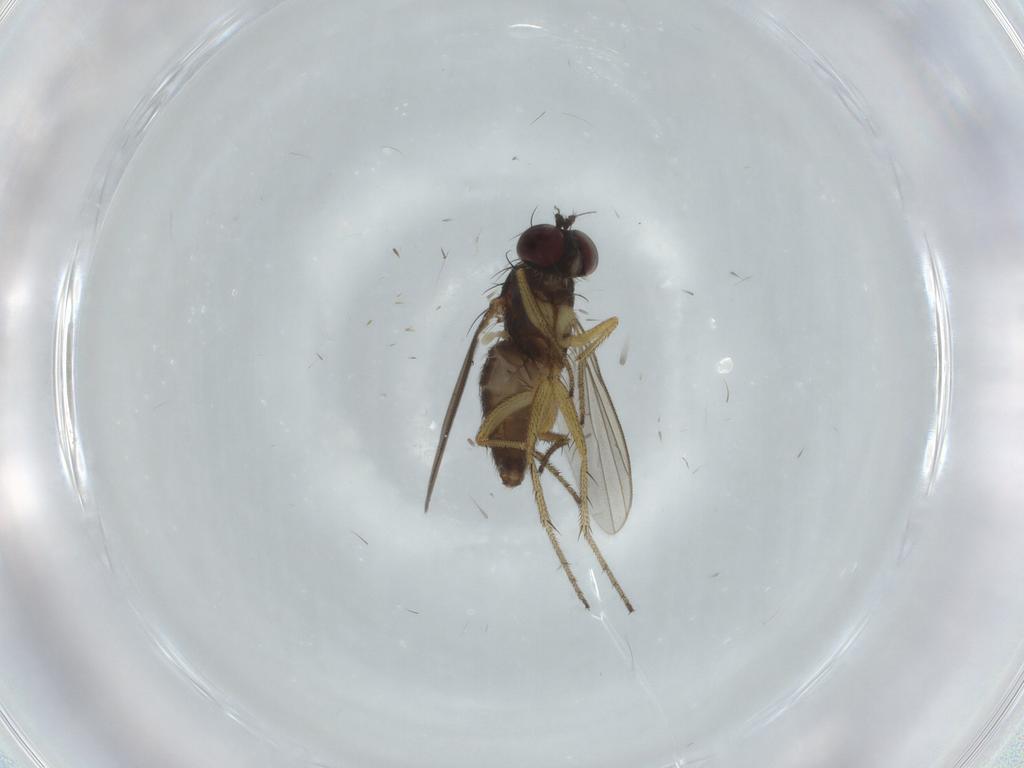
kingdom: Animalia
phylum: Arthropoda
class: Insecta
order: Diptera
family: Dolichopodidae
